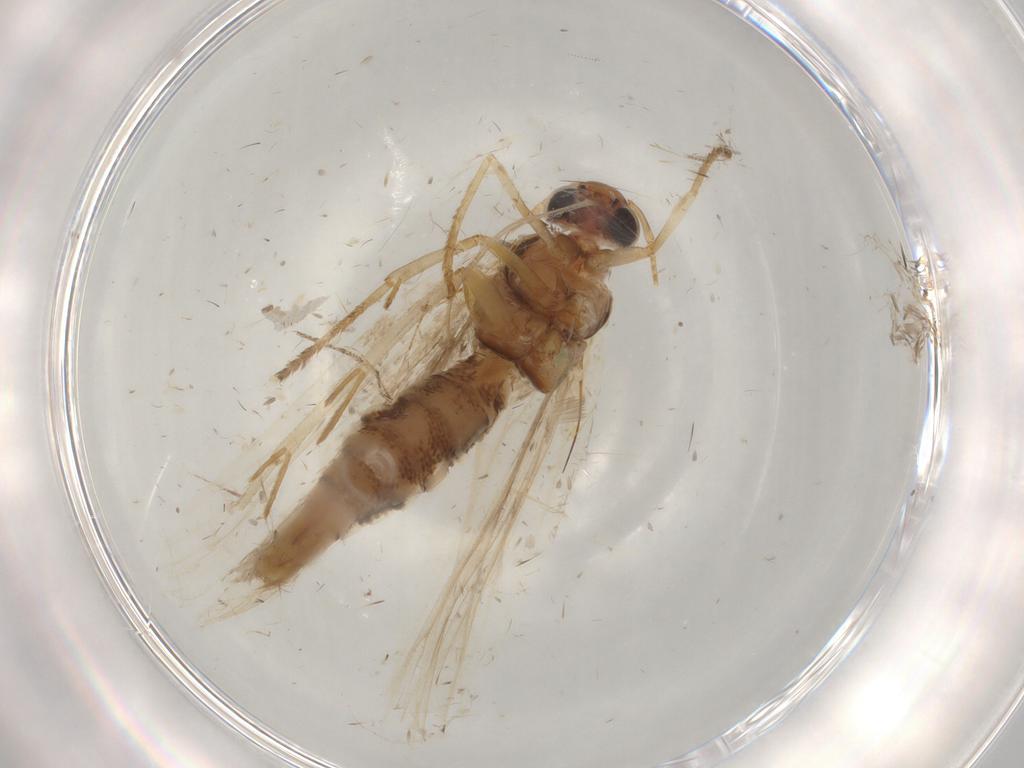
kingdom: Animalia
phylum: Arthropoda
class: Insecta
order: Lepidoptera
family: Gelechiidae
